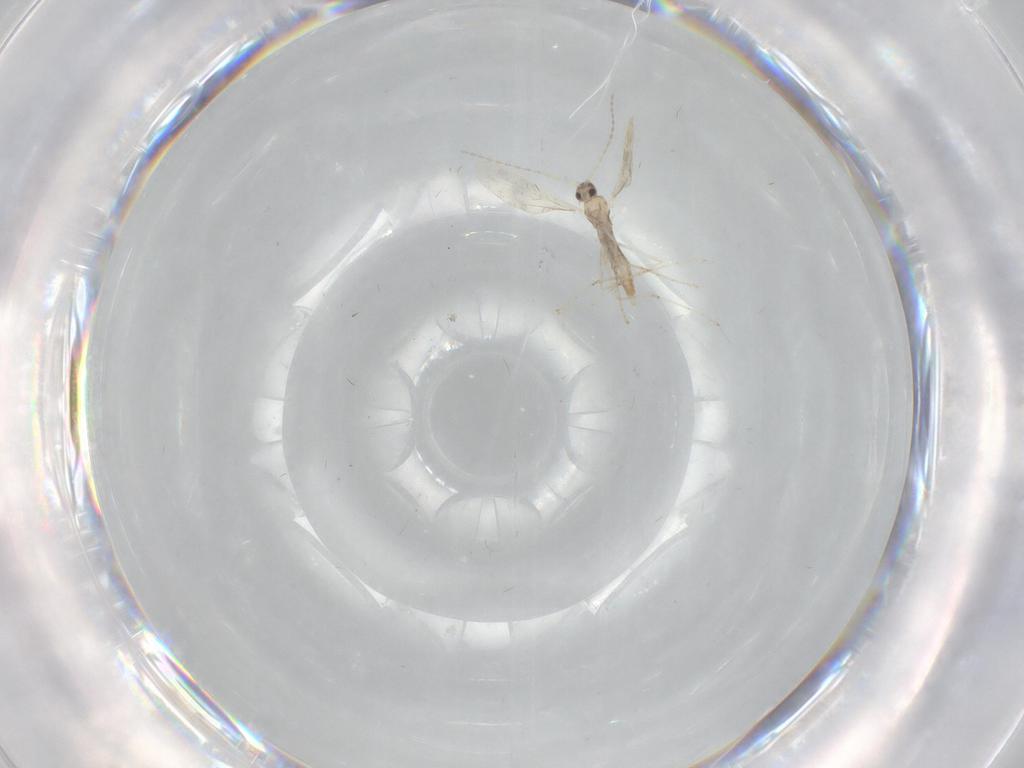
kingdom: Animalia
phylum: Arthropoda
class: Insecta
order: Diptera
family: Cecidomyiidae
